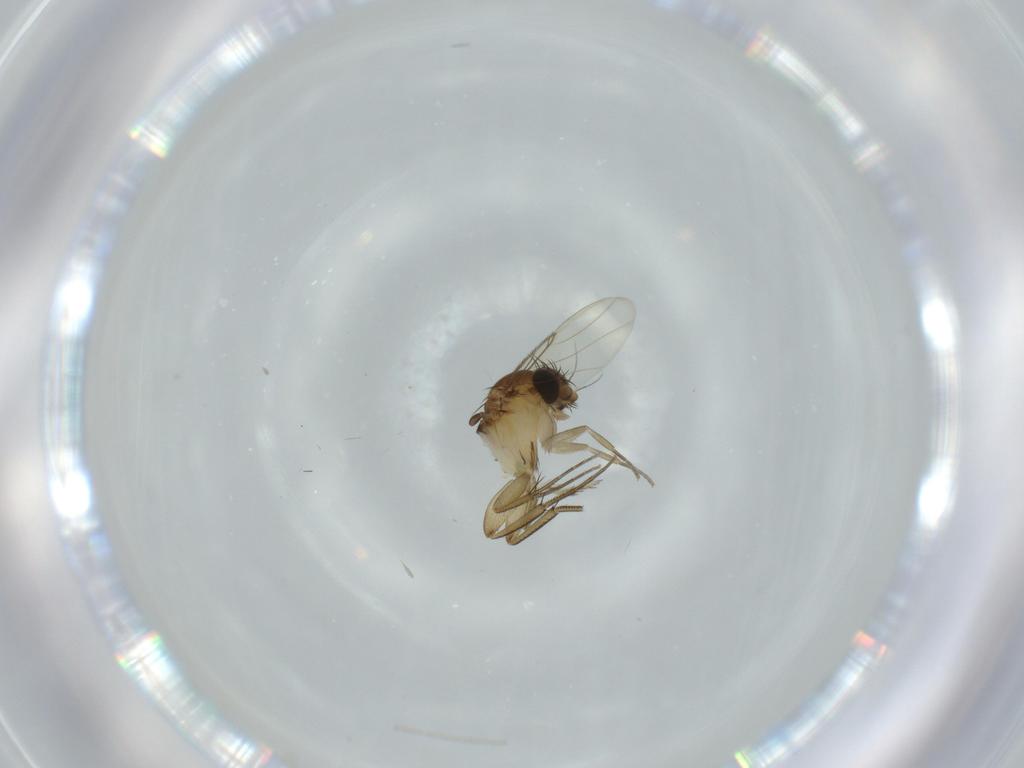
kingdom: Animalia
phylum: Arthropoda
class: Insecta
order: Diptera
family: Phoridae
